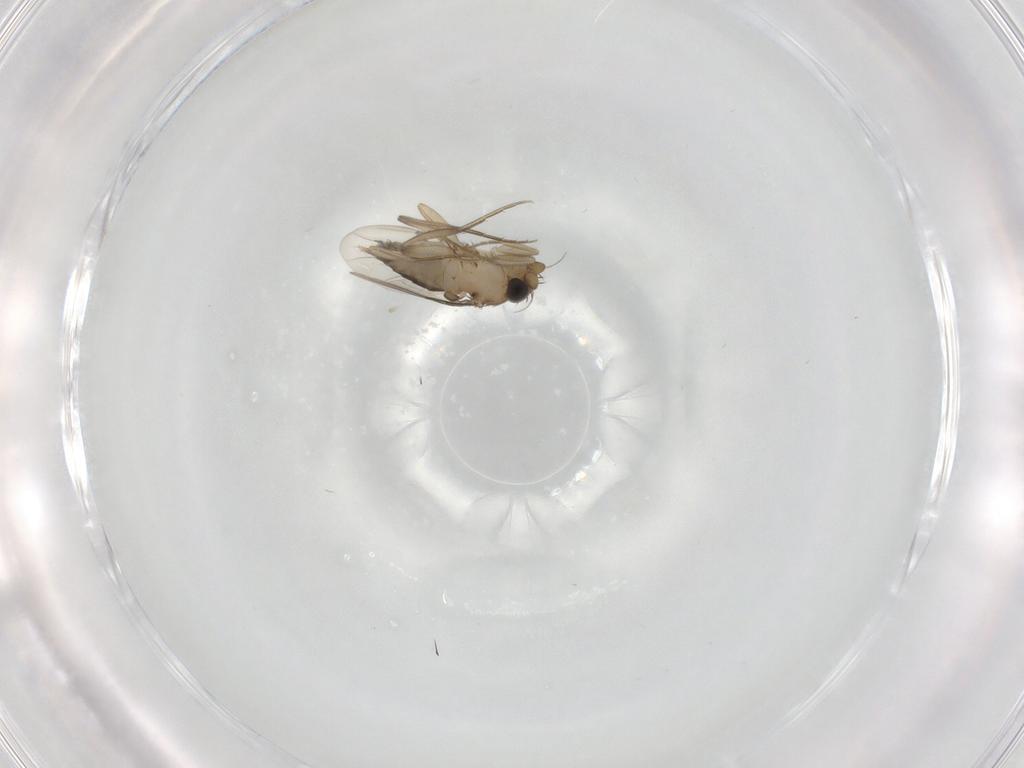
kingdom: Animalia
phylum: Arthropoda
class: Insecta
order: Diptera
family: Phoridae
